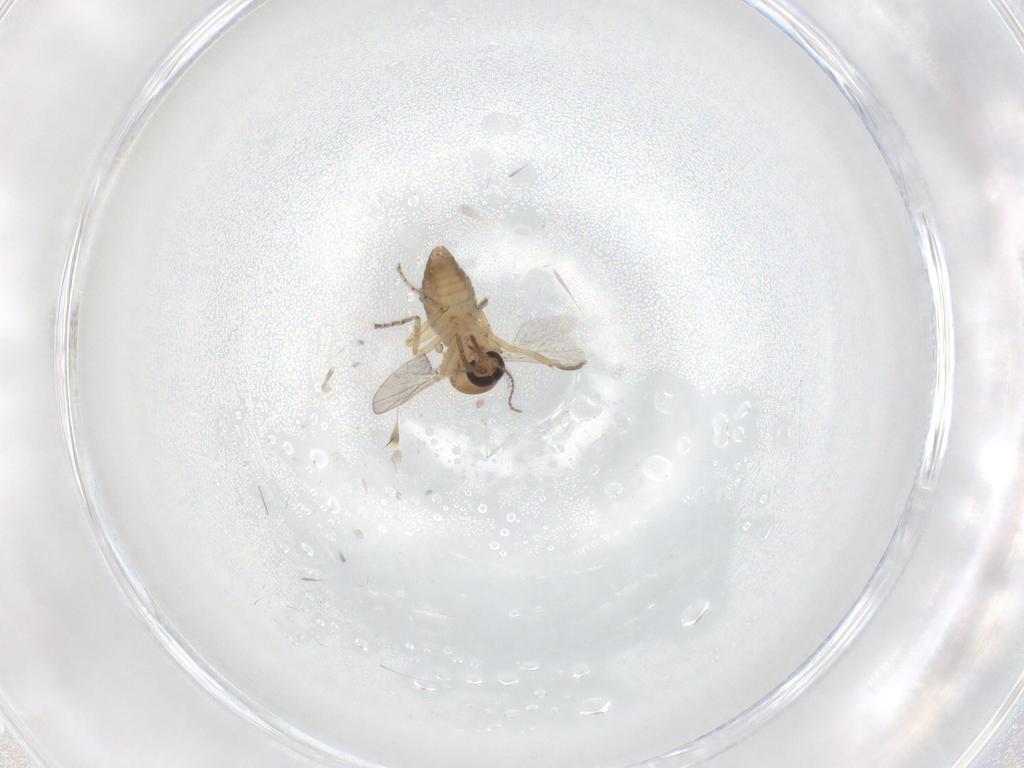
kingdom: Animalia
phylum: Arthropoda
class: Insecta
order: Diptera
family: Ceratopogonidae
